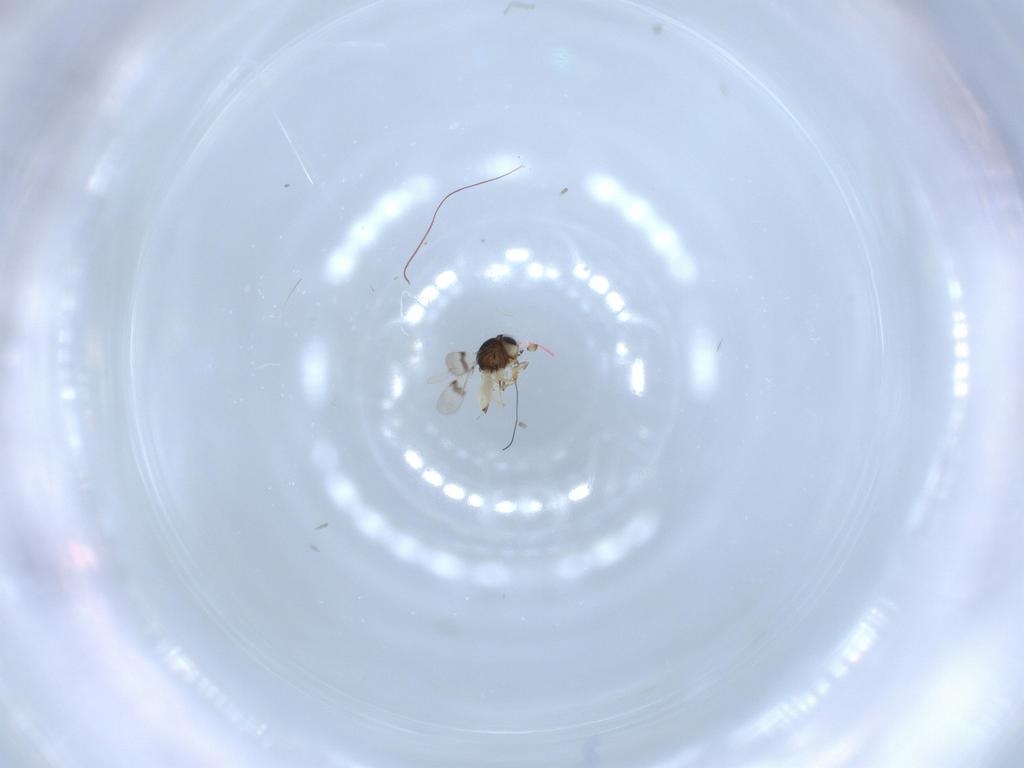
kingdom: Animalia
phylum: Arthropoda
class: Insecta
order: Hymenoptera
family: Scelionidae
